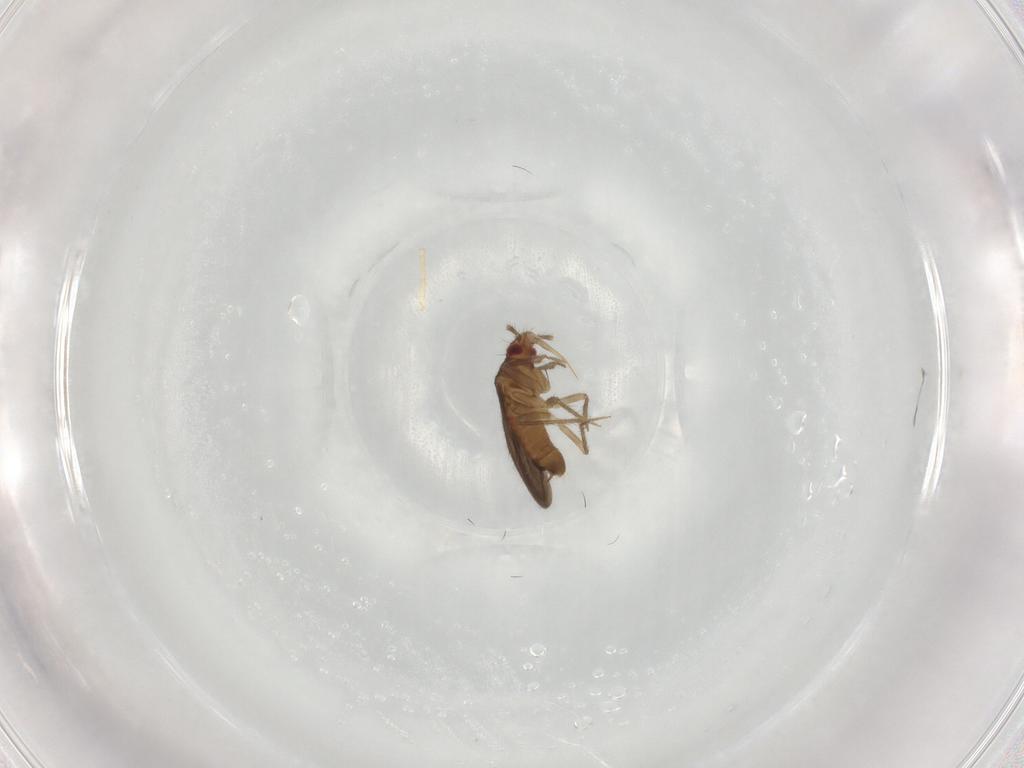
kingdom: Animalia
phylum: Arthropoda
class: Insecta
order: Hemiptera
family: Ceratocombidae
